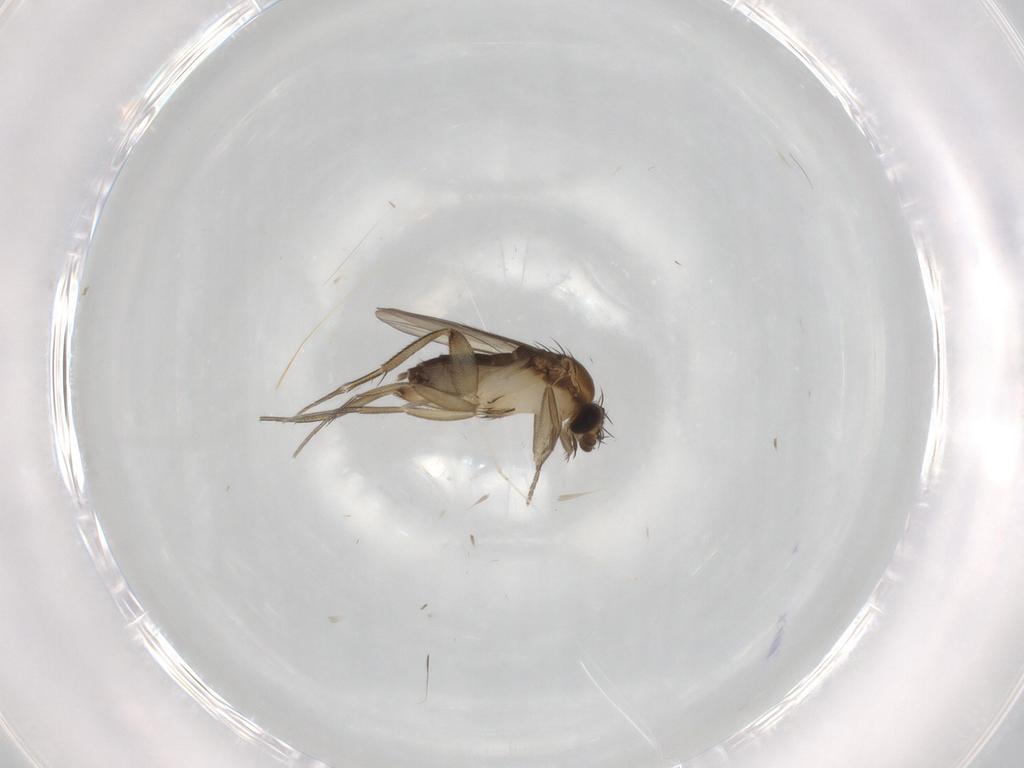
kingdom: Animalia
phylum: Arthropoda
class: Insecta
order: Diptera
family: Phoridae
